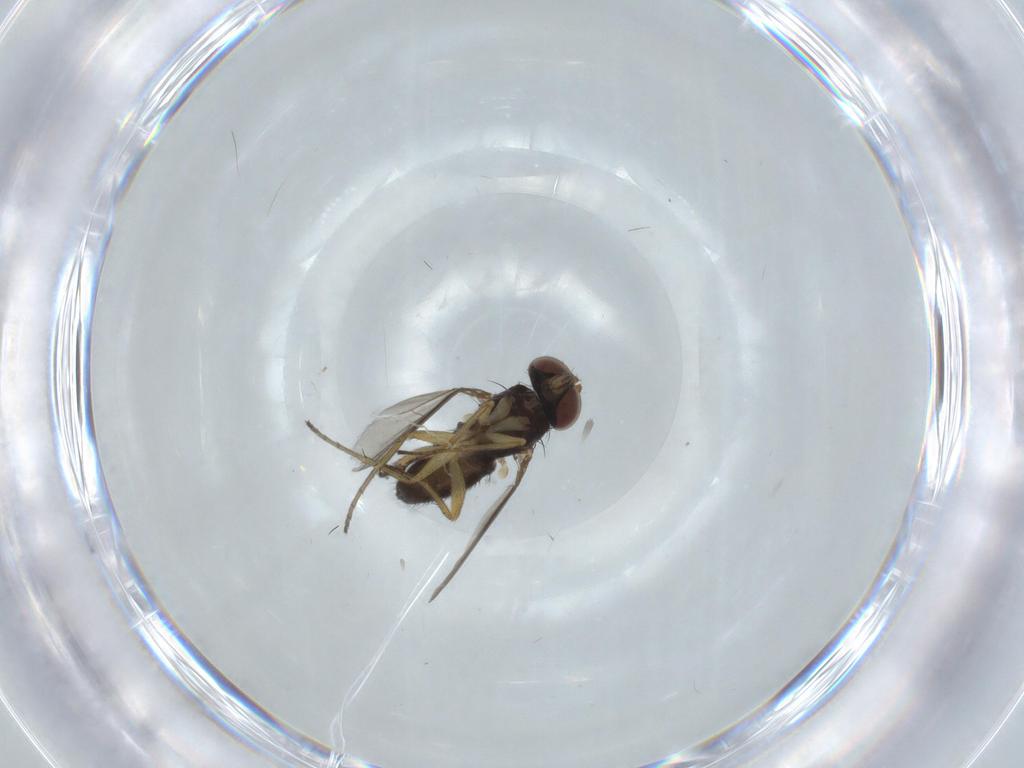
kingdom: Animalia
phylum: Arthropoda
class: Insecta
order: Diptera
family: Dolichopodidae
